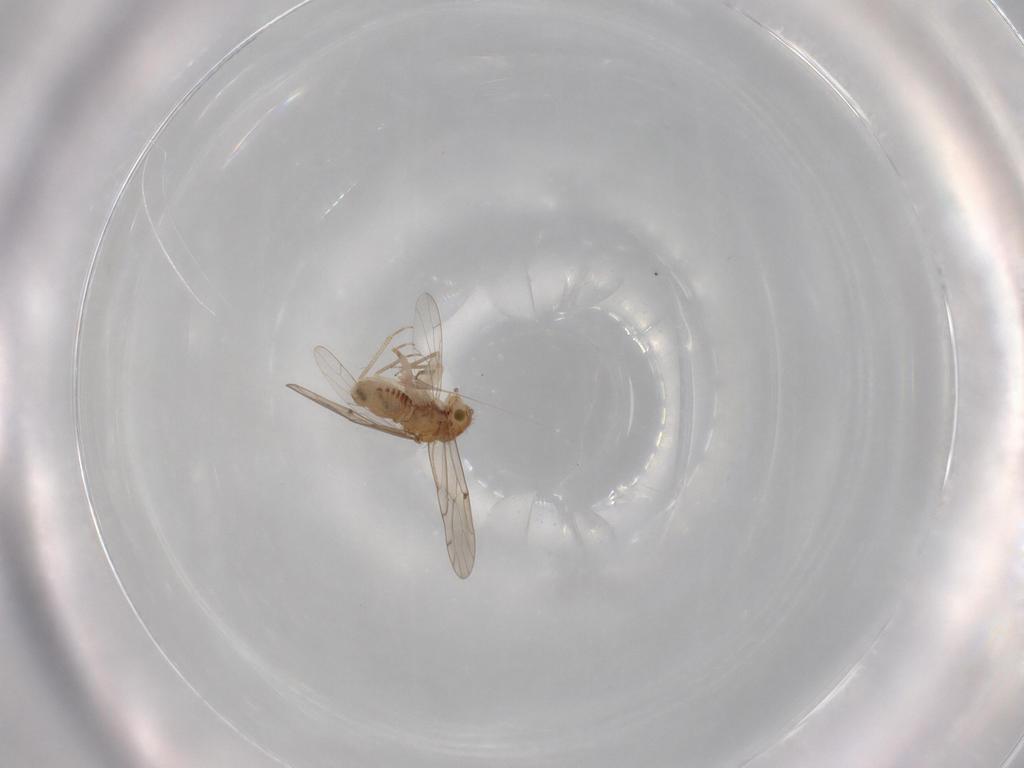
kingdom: Animalia
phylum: Arthropoda
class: Insecta
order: Psocodea
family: Ectopsocidae
